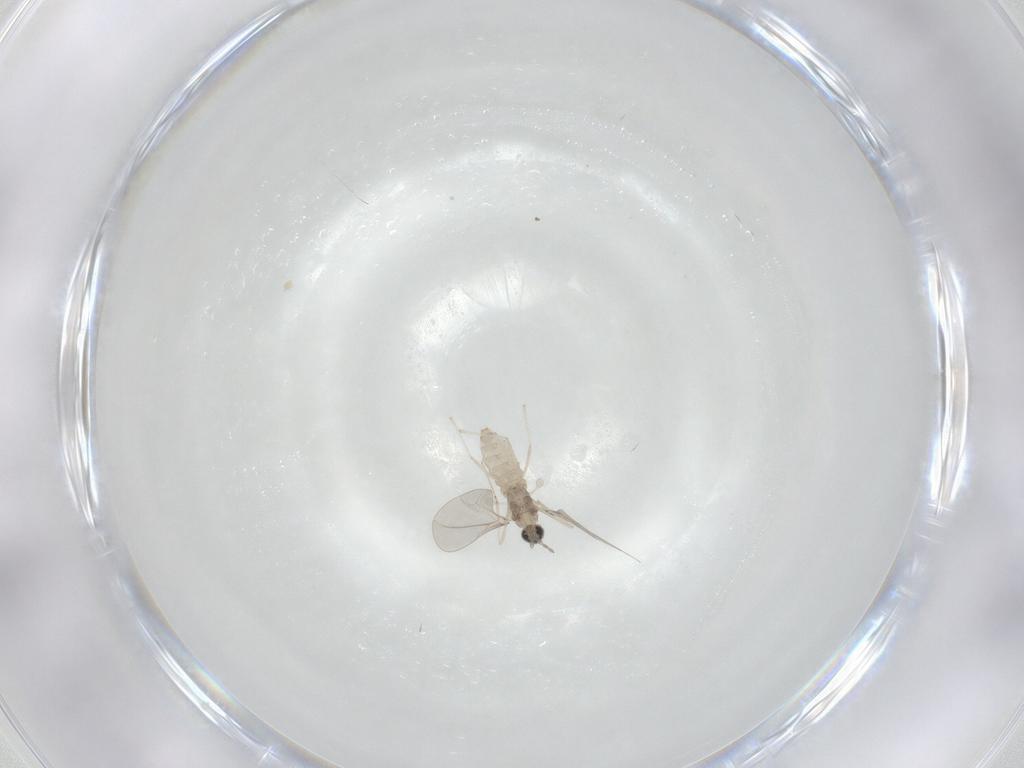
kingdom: Animalia
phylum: Arthropoda
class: Insecta
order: Diptera
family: Cecidomyiidae
